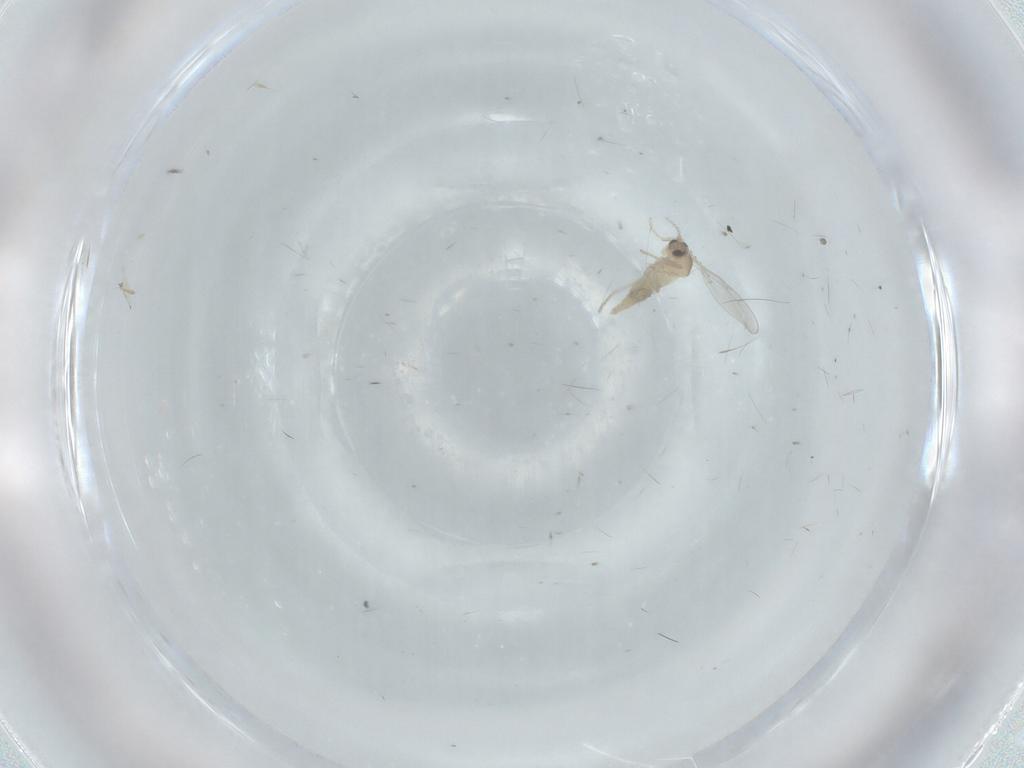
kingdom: Animalia
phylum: Arthropoda
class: Insecta
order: Diptera
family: Cecidomyiidae
